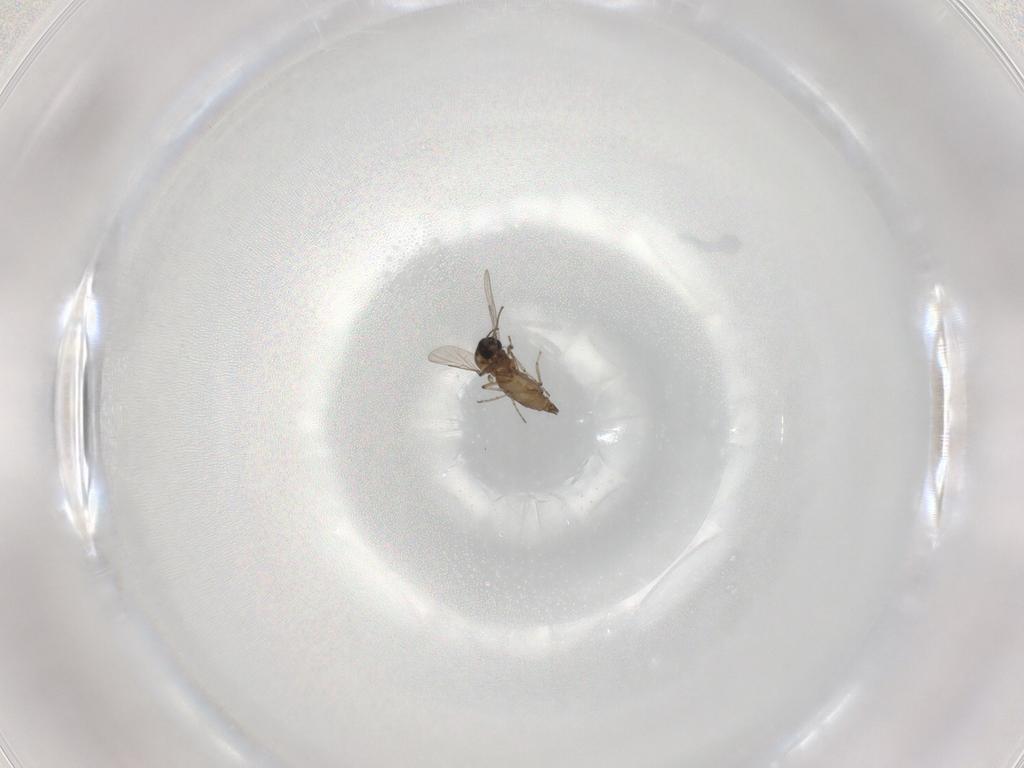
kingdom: Animalia
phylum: Arthropoda
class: Insecta
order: Diptera
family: Ceratopogonidae
